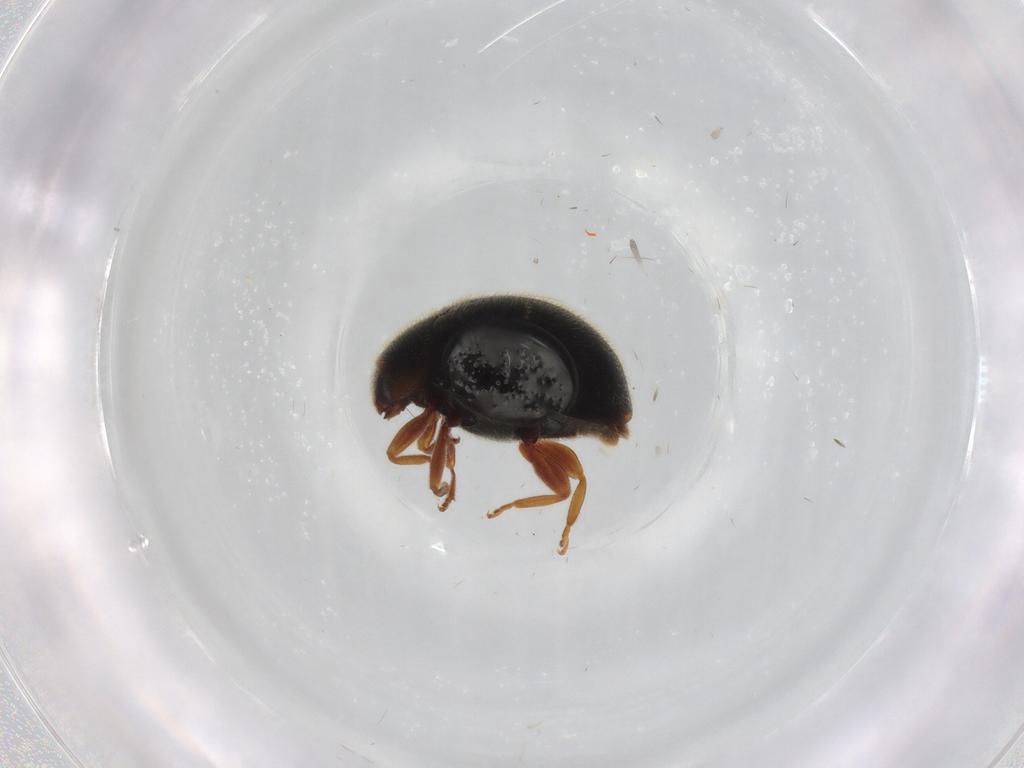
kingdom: Animalia
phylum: Arthropoda
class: Insecta
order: Coleoptera
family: Coccinellidae
